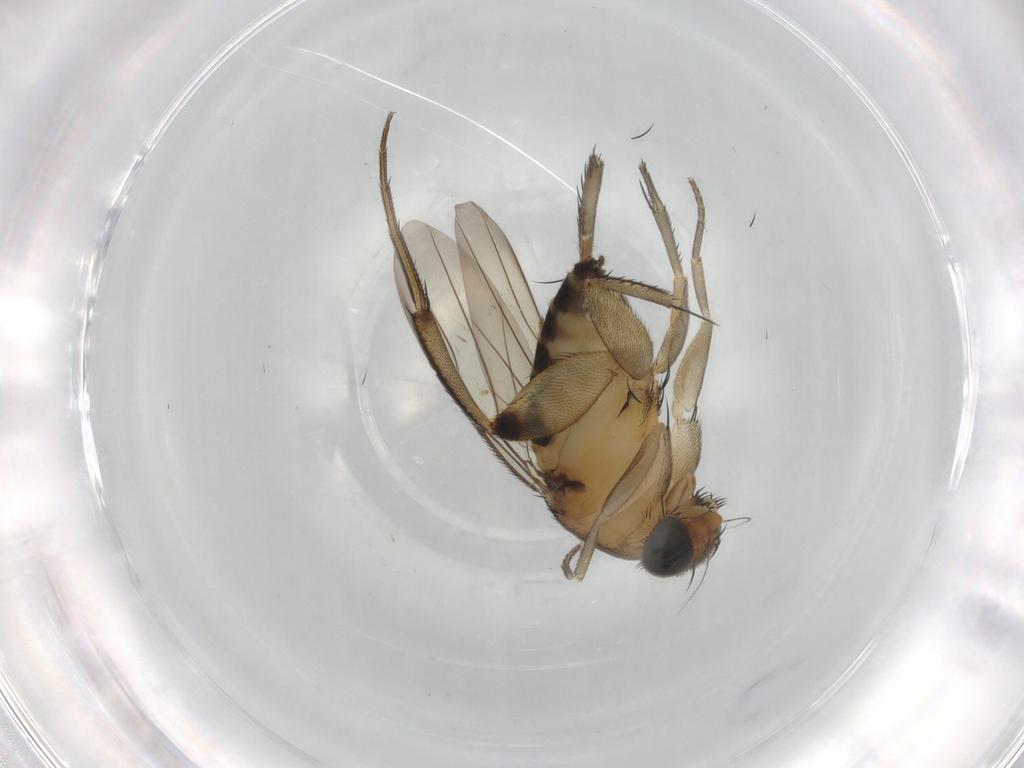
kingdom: Animalia
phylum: Arthropoda
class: Insecta
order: Diptera
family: Phoridae
